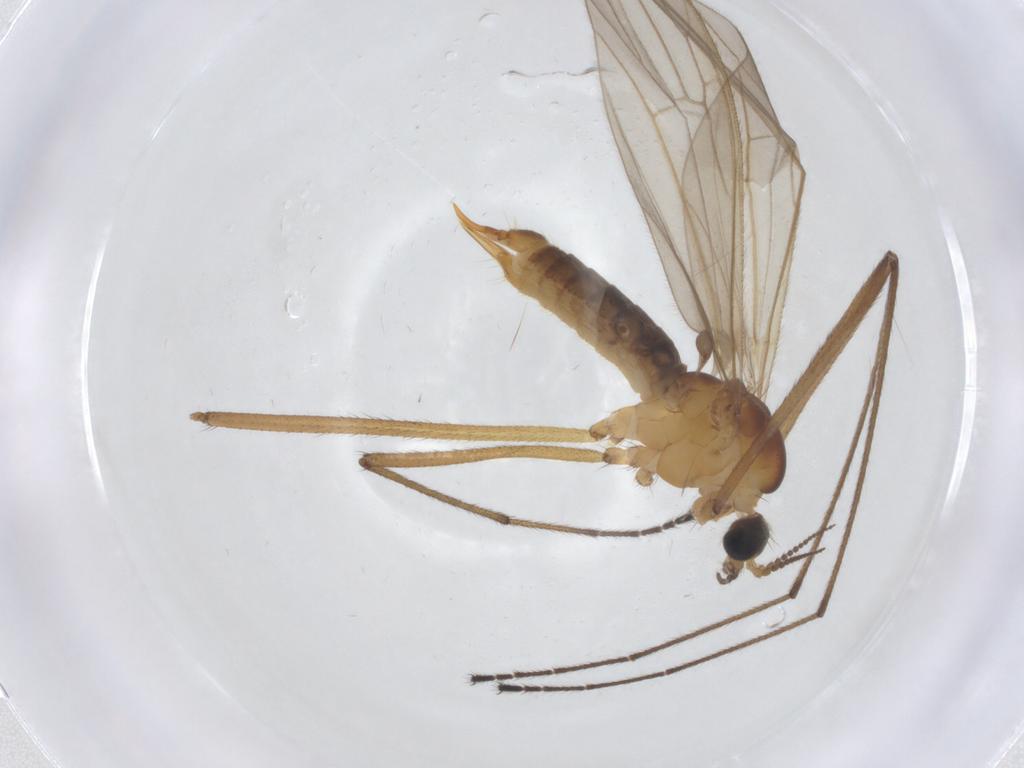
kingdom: Animalia
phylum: Arthropoda
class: Insecta
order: Diptera
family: Limoniidae
